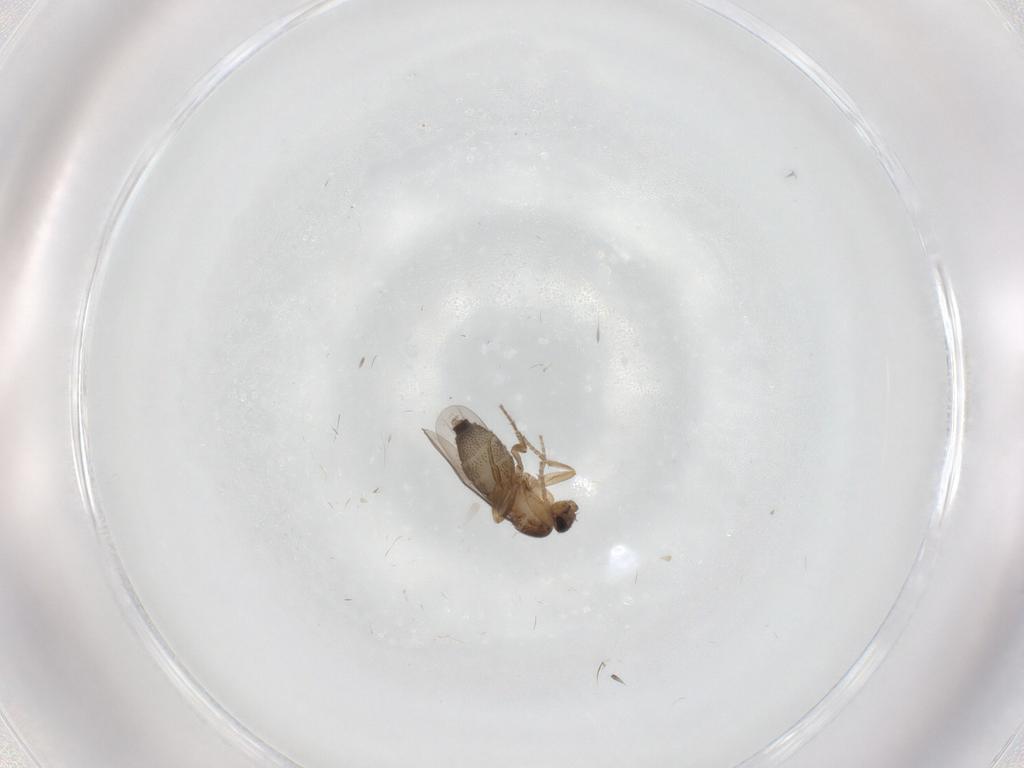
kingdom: Animalia
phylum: Arthropoda
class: Insecta
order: Diptera
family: Phoridae
